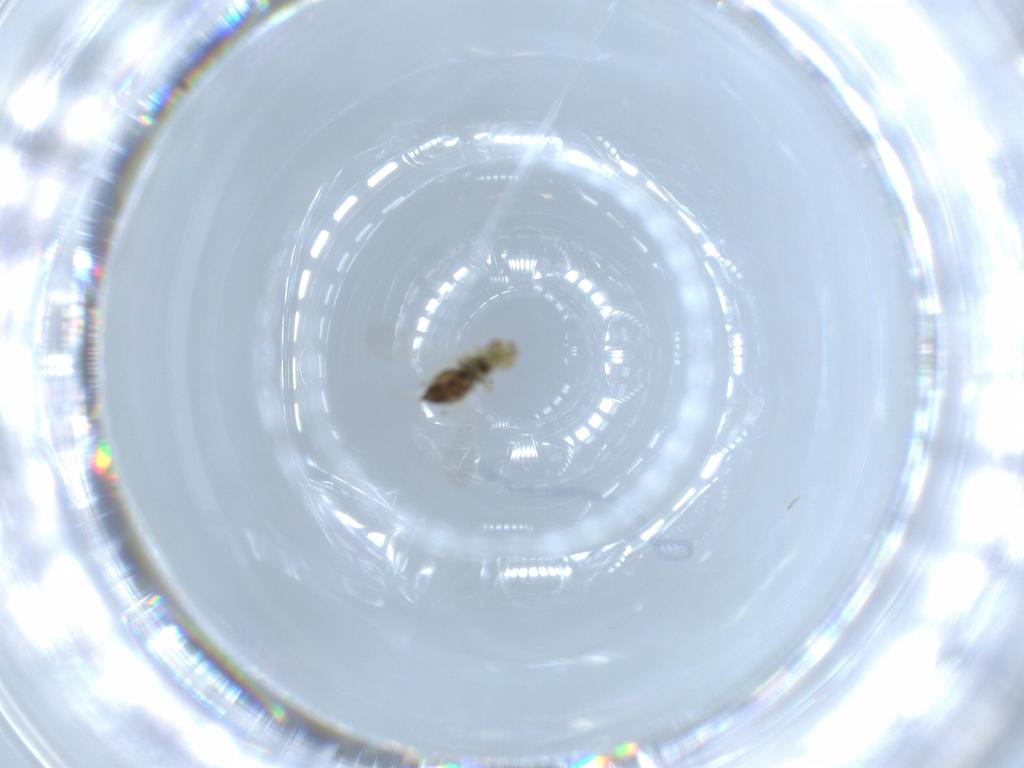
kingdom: Animalia
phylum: Arthropoda
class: Insecta
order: Hymenoptera
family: Eulophidae
